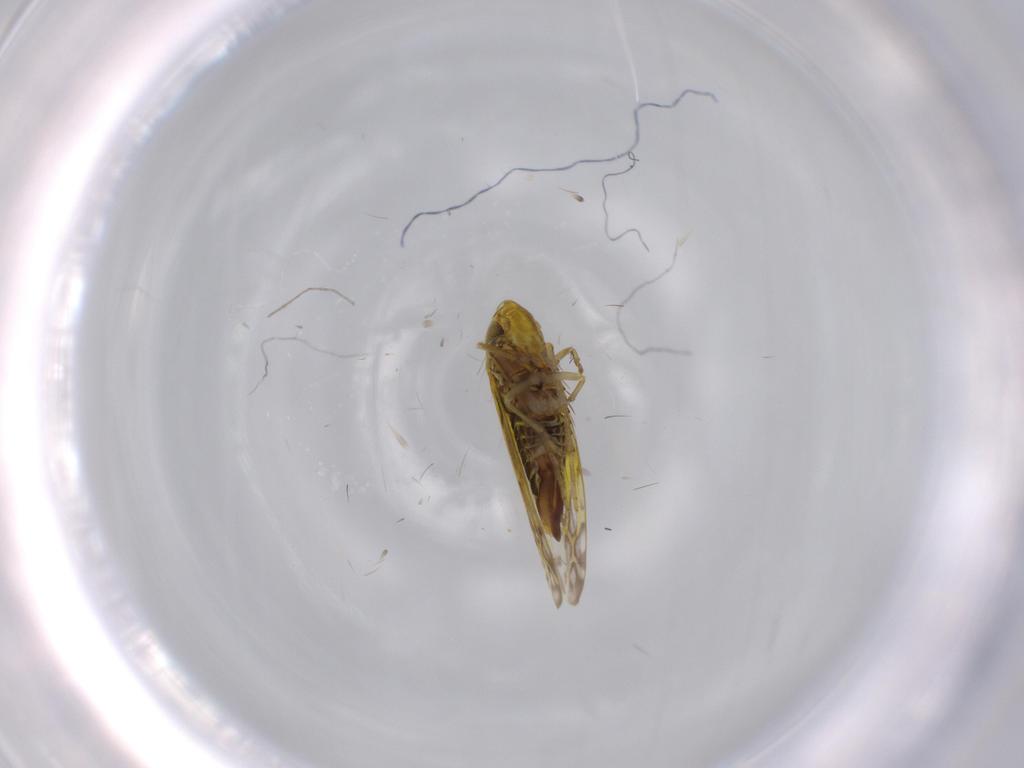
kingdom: Animalia
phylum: Arthropoda
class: Insecta
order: Hemiptera
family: Cicadellidae
